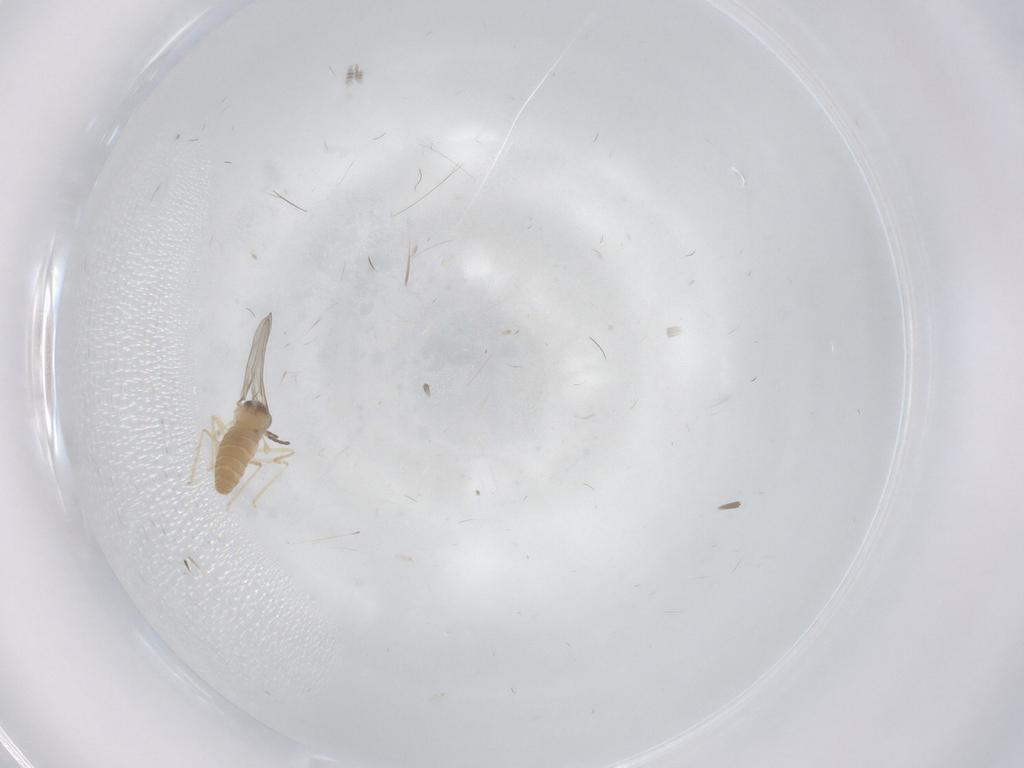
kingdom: Animalia
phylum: Arthropoda
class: Insecta
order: Diptera
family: Cecidomyiidae
